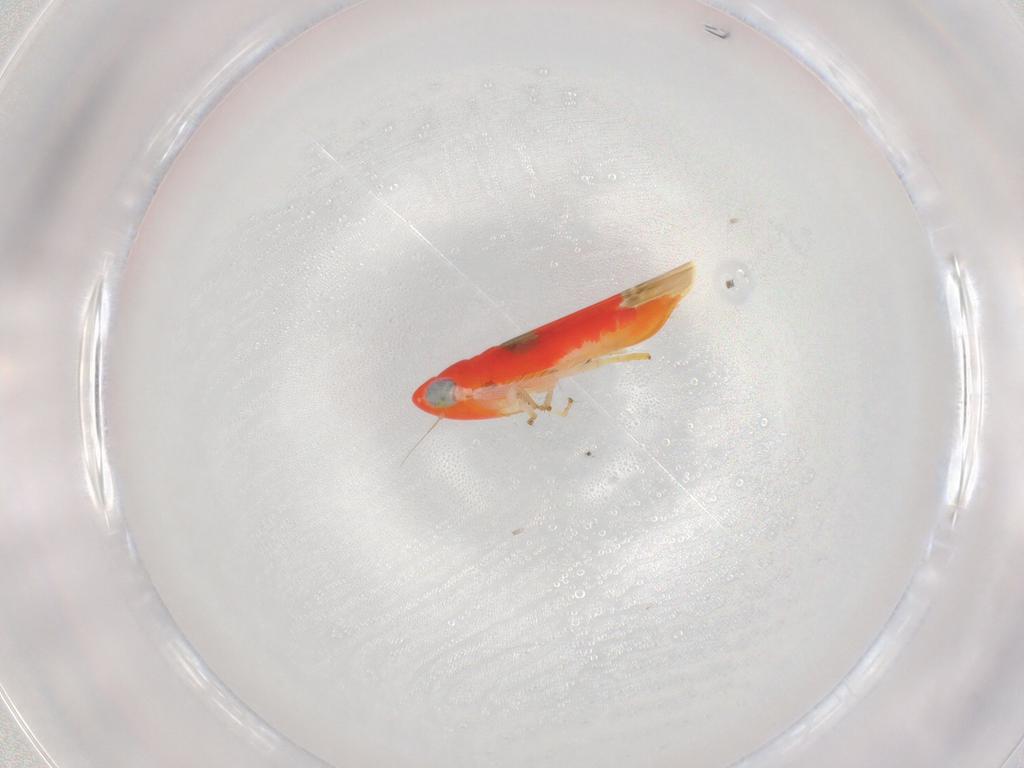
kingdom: Animalia
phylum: Arthropoda
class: Insecta
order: Hemiptera
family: Cicadellidae
